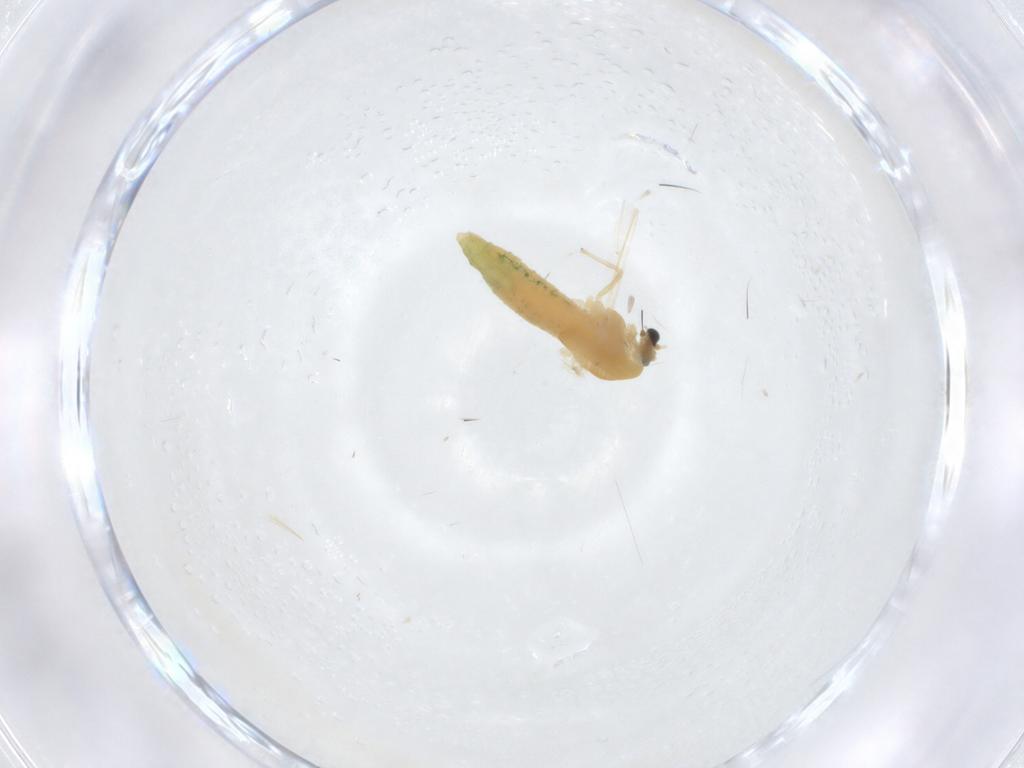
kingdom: Animalia
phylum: Arthropoda
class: Insecta
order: Diptera
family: Chironomidae
